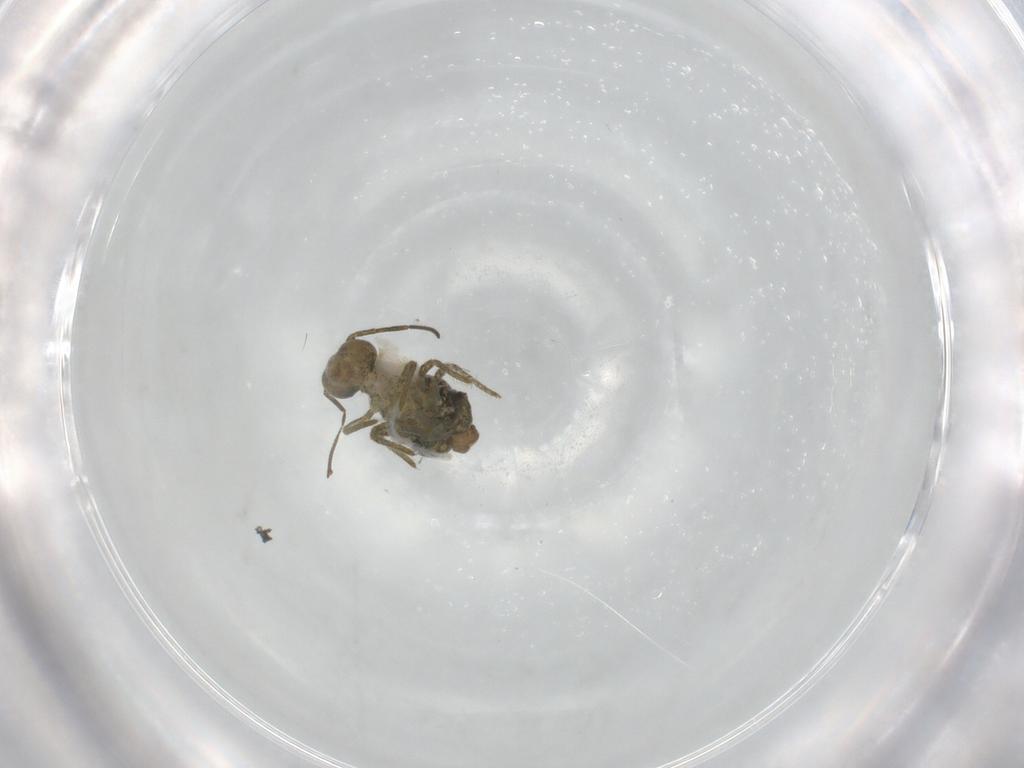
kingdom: Animalia
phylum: Arthropoda
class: Collembola
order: Symphypleona
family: Sminthuridae
